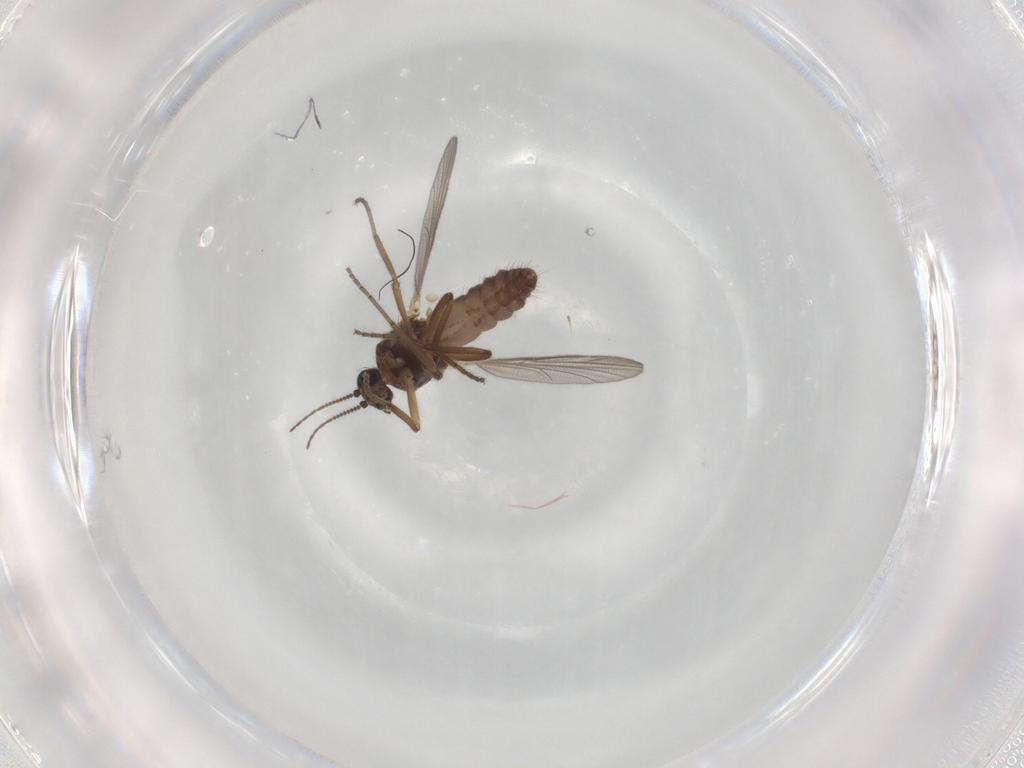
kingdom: Animalia
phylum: Arthropoda
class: Insecta
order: Diptera
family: Ceratopogonidae
